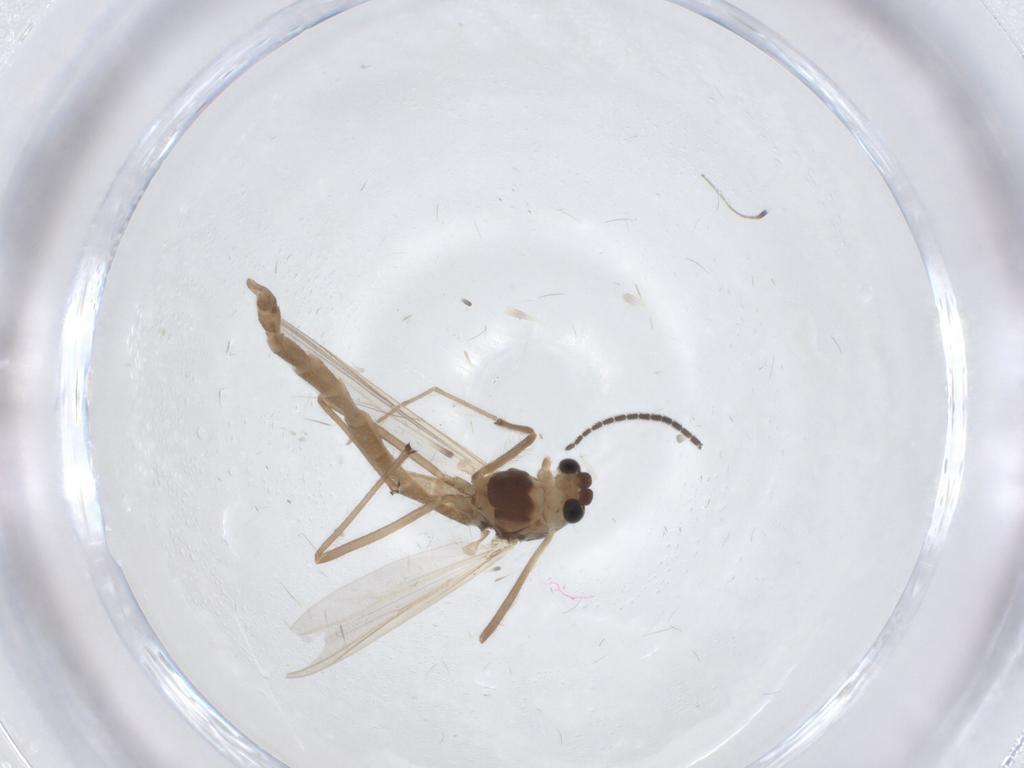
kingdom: Animalia
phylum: Arthropoda
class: Insecta
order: Diptera
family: Chironomidae
